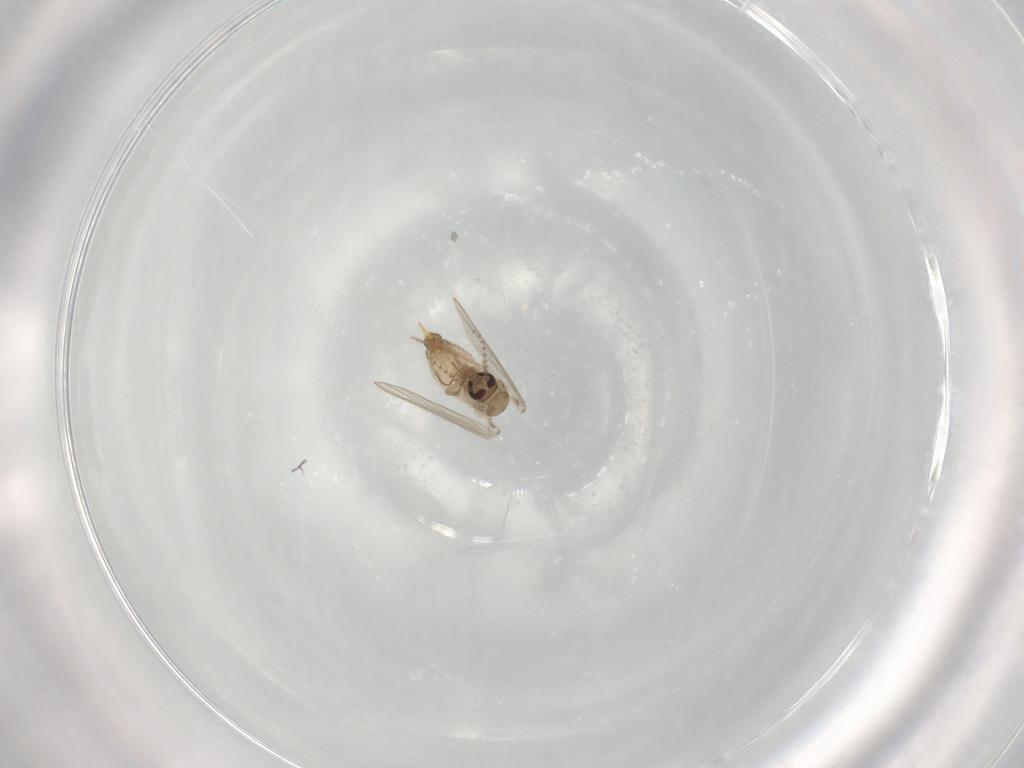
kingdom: Animalia
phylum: Arthropoda
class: Insecta
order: Diptera
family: Psychodidae
